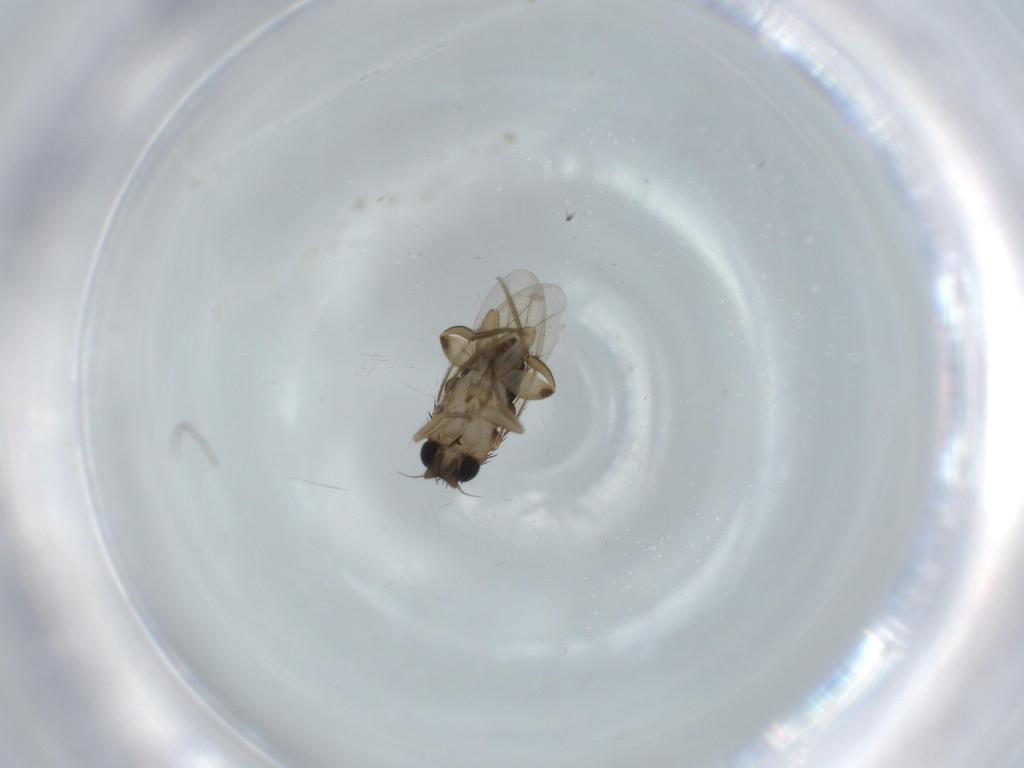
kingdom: Animalia
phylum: Arthropoda
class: Insecta
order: Diptera
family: Phoridae
